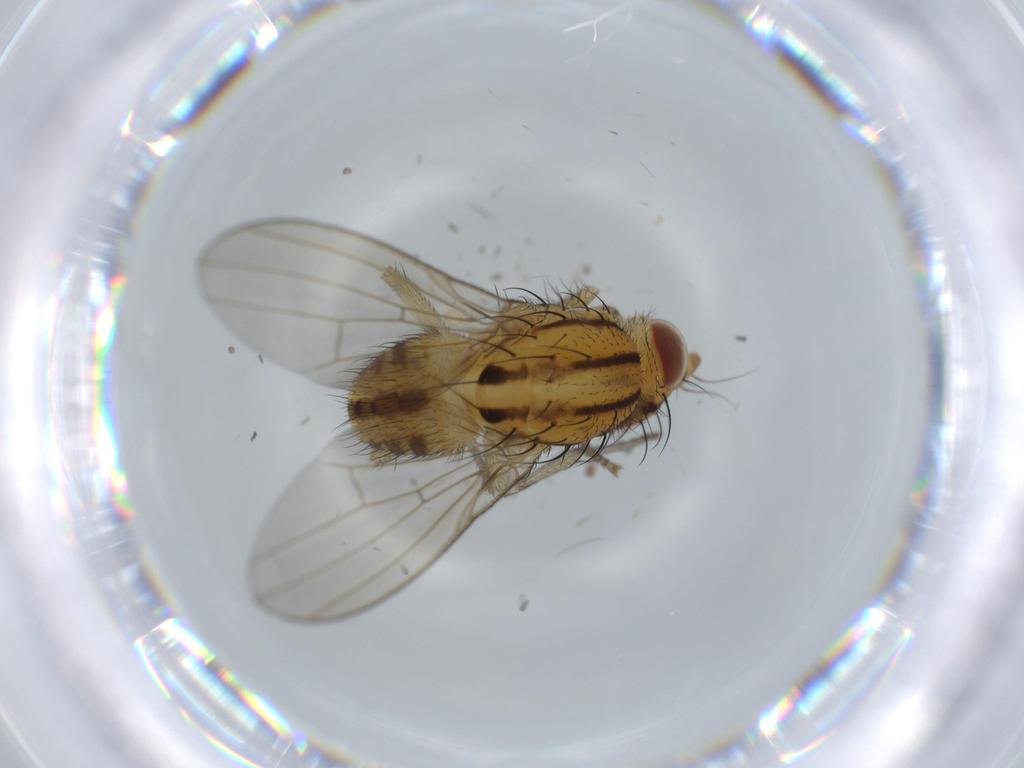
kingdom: Animalia
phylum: Arthropoda
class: Insecta
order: Diptera
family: Lauxaniidae
